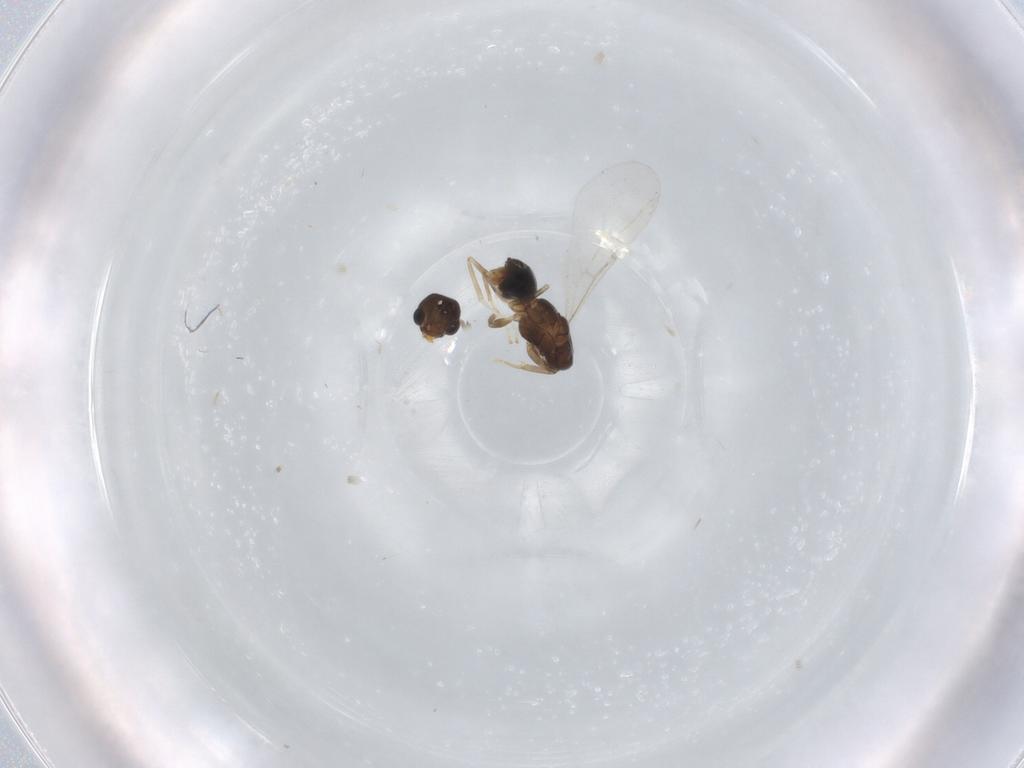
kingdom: Animalia
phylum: Arthropoda
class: Insecta
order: Hymenoptera
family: Formicidae
